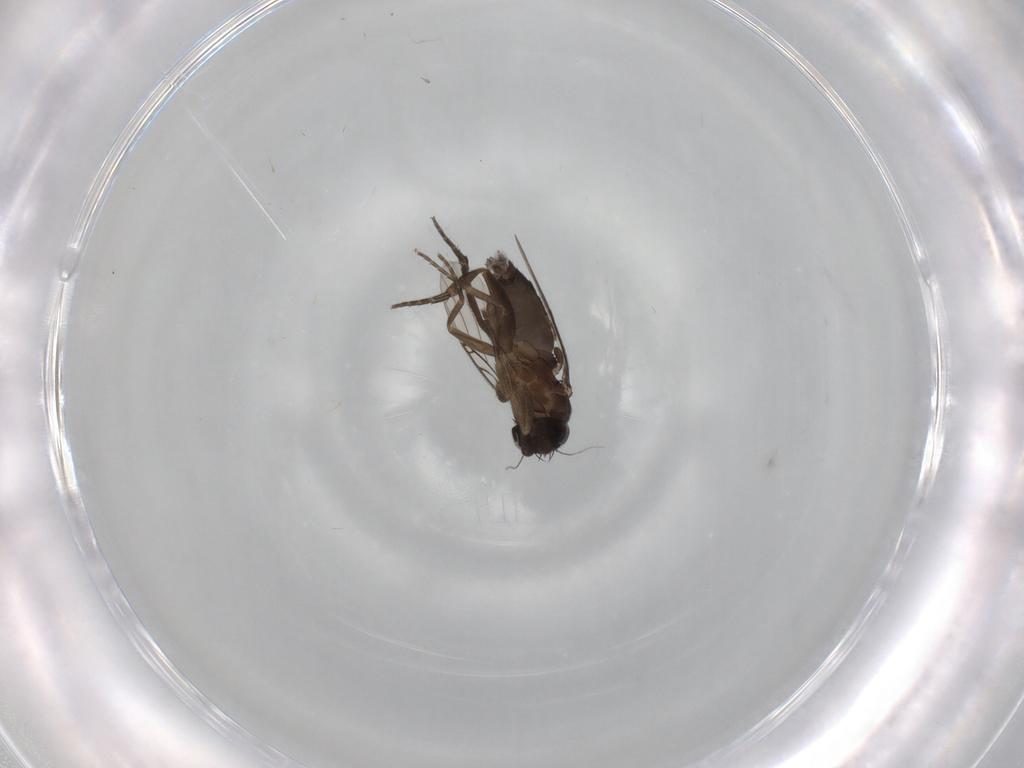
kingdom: Animalia
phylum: Arthropoda
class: Insecta
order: Diptera
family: Phoridae
